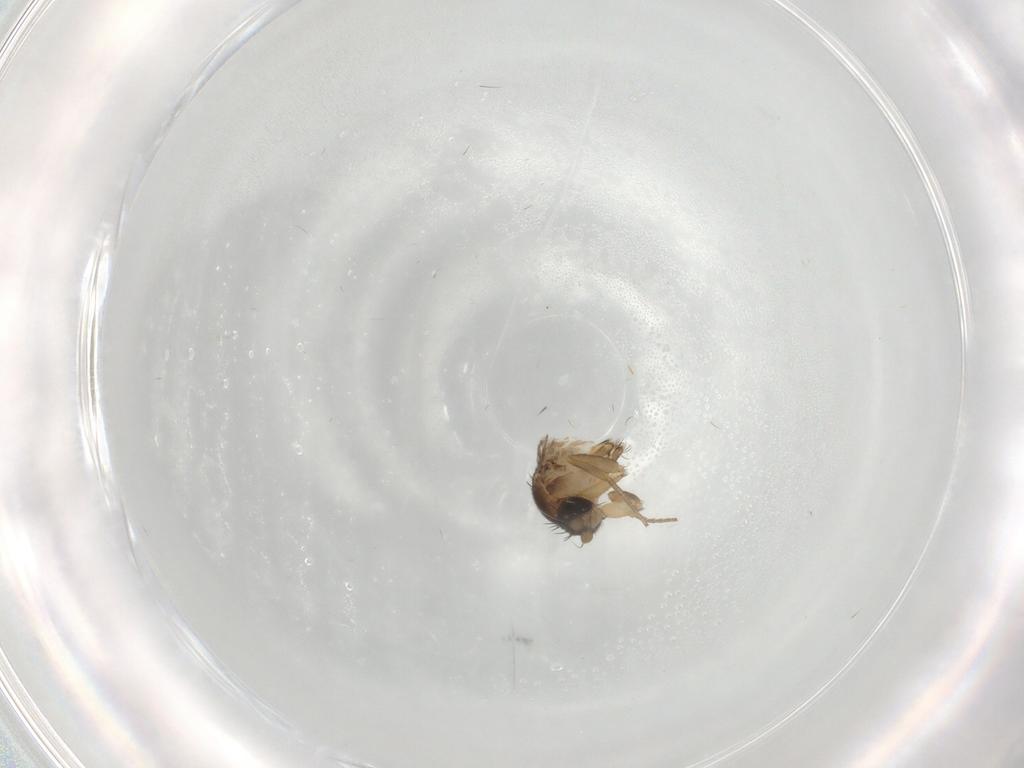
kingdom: Animalia
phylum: Arthropoda
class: Insecta
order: Diptera
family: Phoridae
